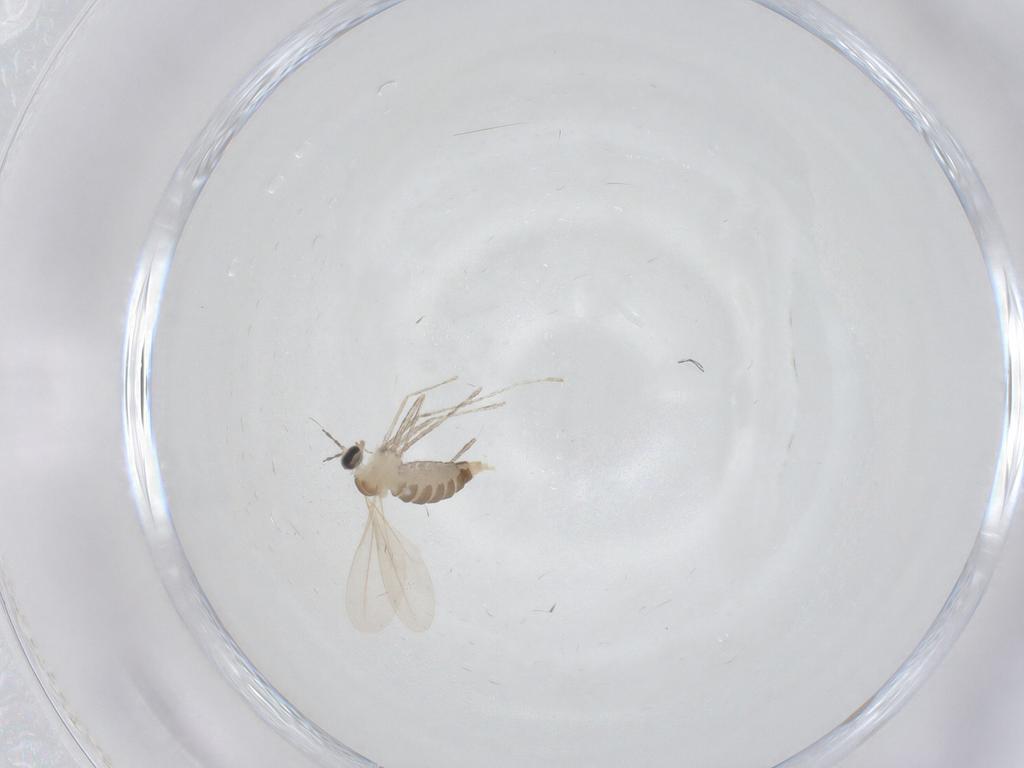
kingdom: Animalia
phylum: Arthropoda
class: Insecta
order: Diptera
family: Cecidomyiidae
